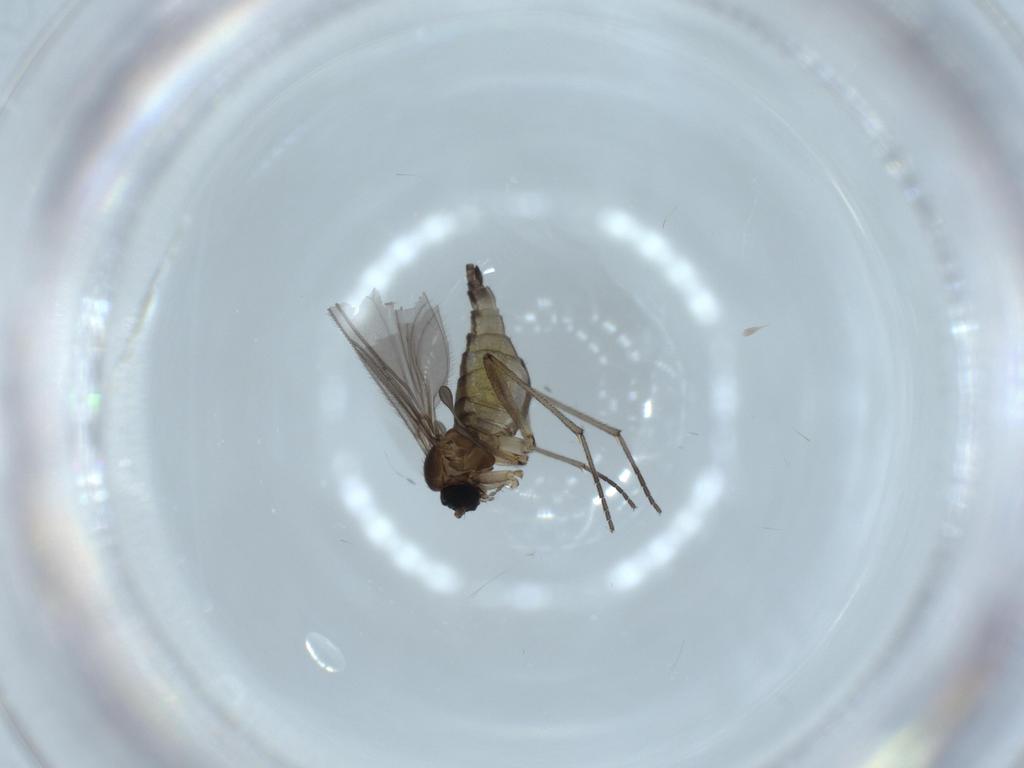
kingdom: Animalia
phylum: Arthropoda
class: Insecta
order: Diptera
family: Sciaridae
